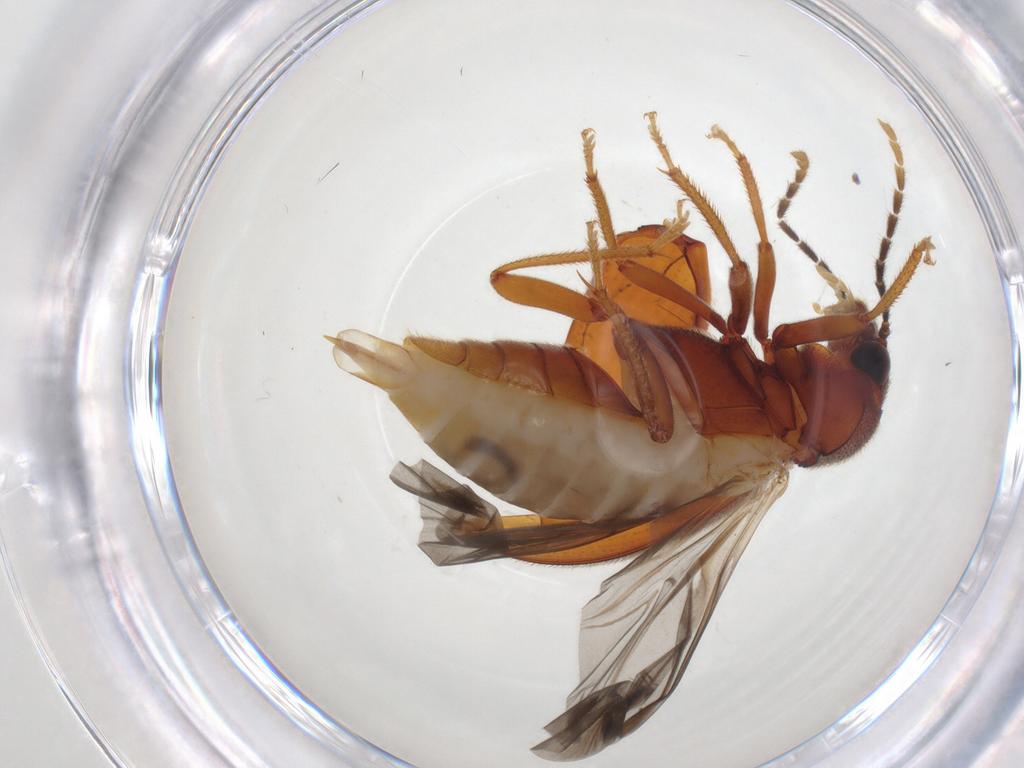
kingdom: Animalia
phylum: Arthropoda
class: Insecta
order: Coleoptera
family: Ptilodactylidae
